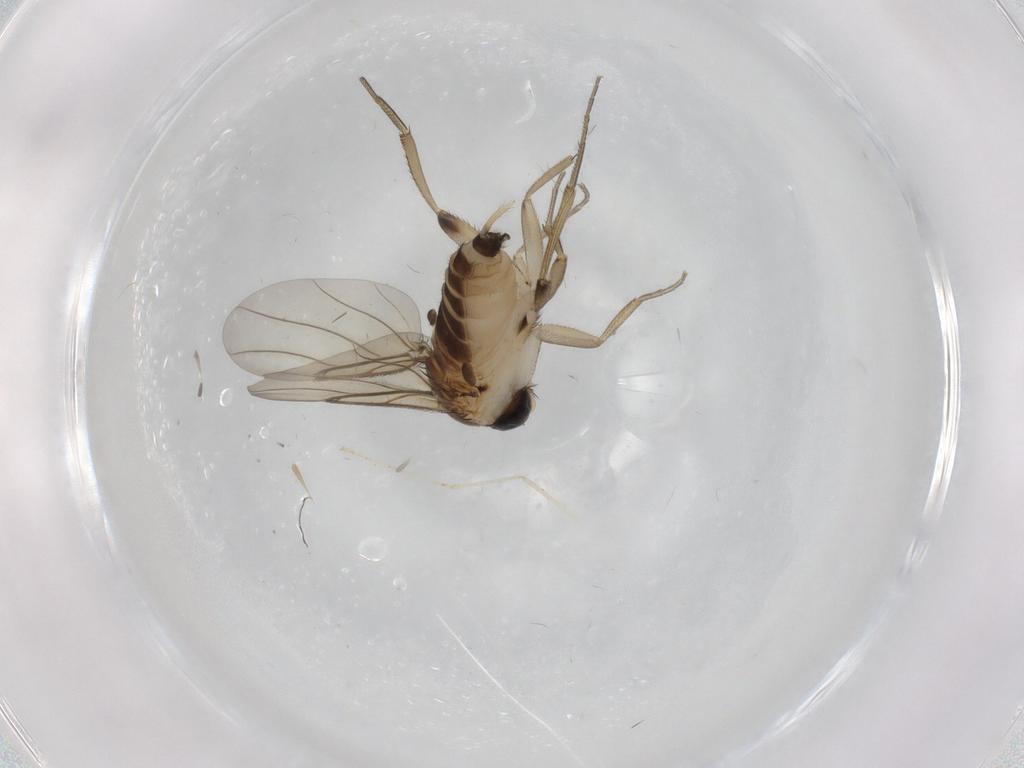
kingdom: Animalia
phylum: Arthropoda
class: Insecta
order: Diptera
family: Cecidomyiidae
